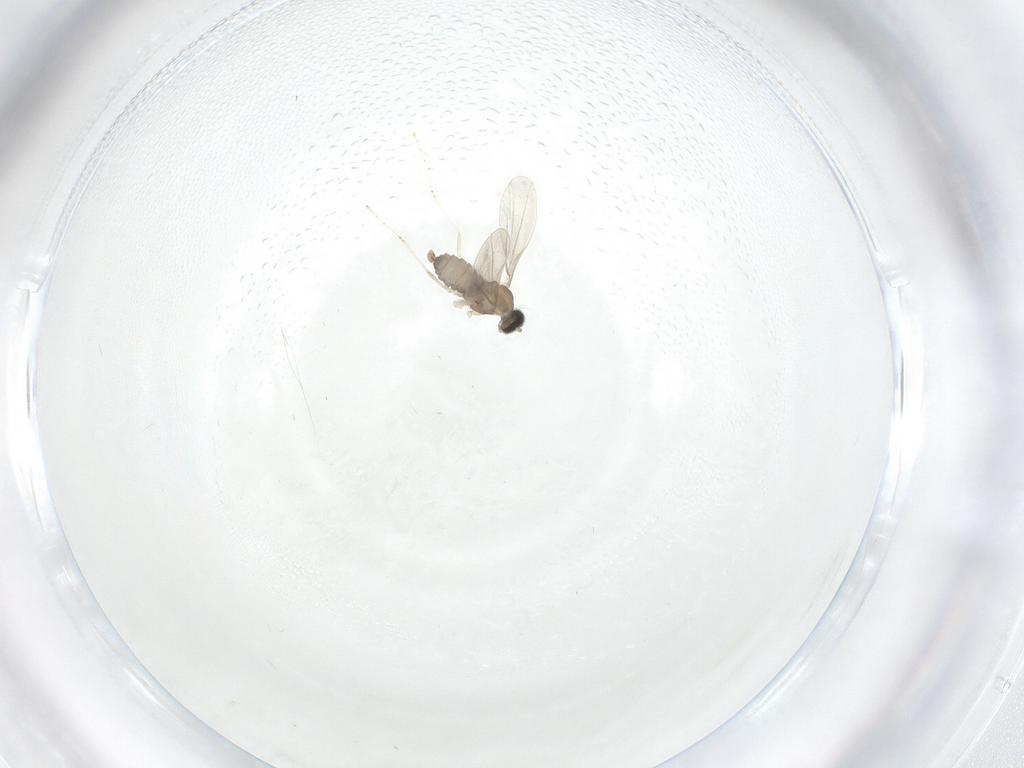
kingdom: Animalia
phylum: Arthropoda
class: Insecta
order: Diptera
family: Cecidomyiidae
